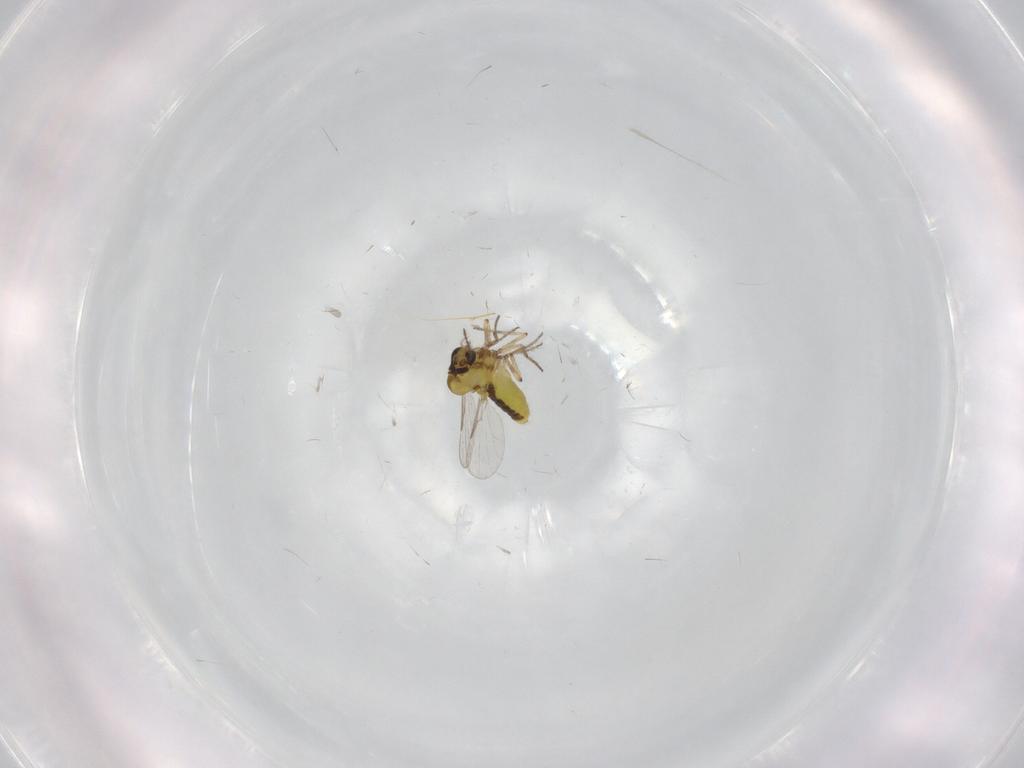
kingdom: Animalia
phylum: Arthropoda
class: Insecta
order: Diptera
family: Ceratopogonidae
